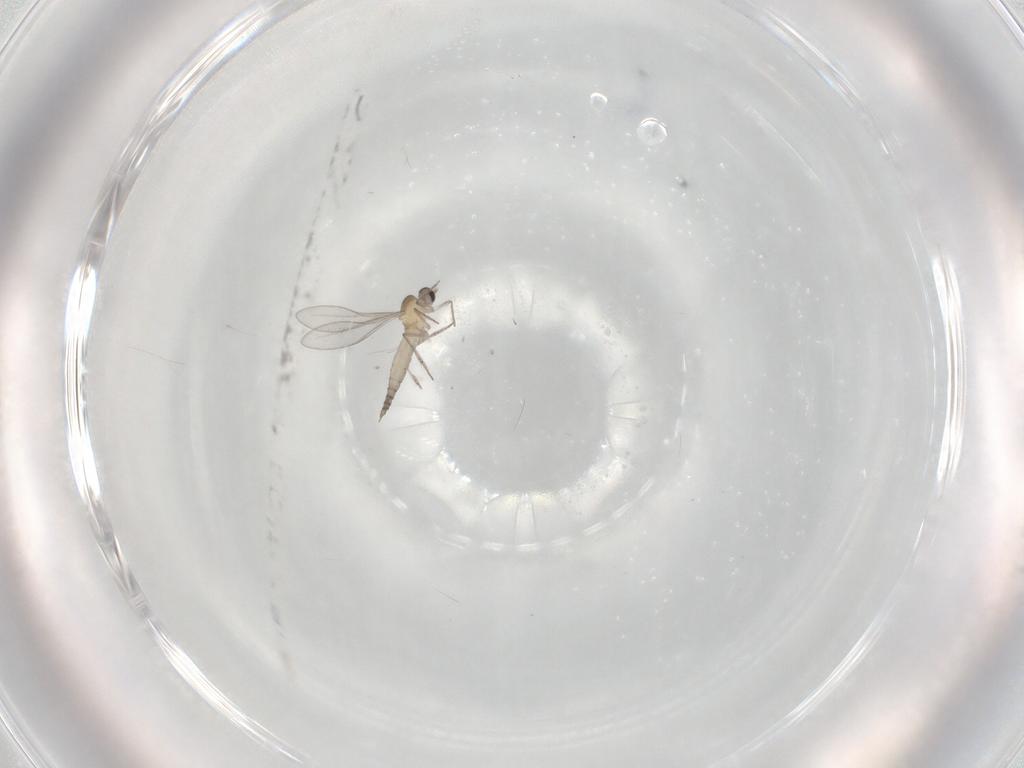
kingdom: Animalia
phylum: Arthropoda
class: Insecta
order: Diptera
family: Cecidomyiidae
